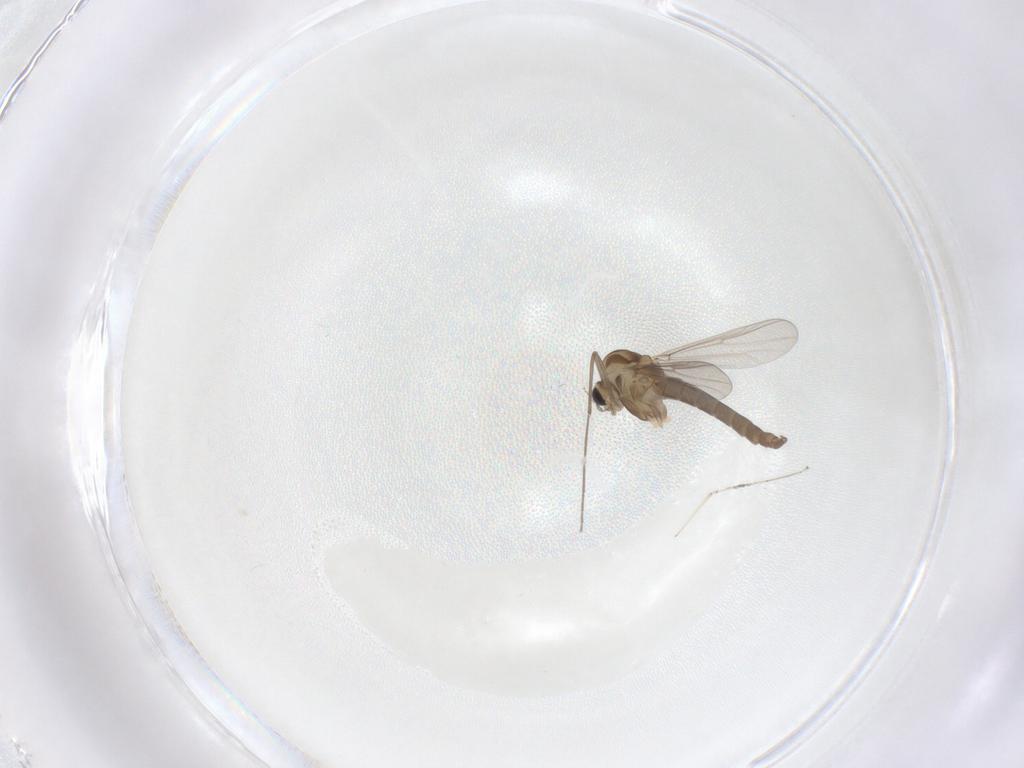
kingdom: Animalia
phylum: Arthropoda
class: Insecta
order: Diptera
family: Chironomidae
